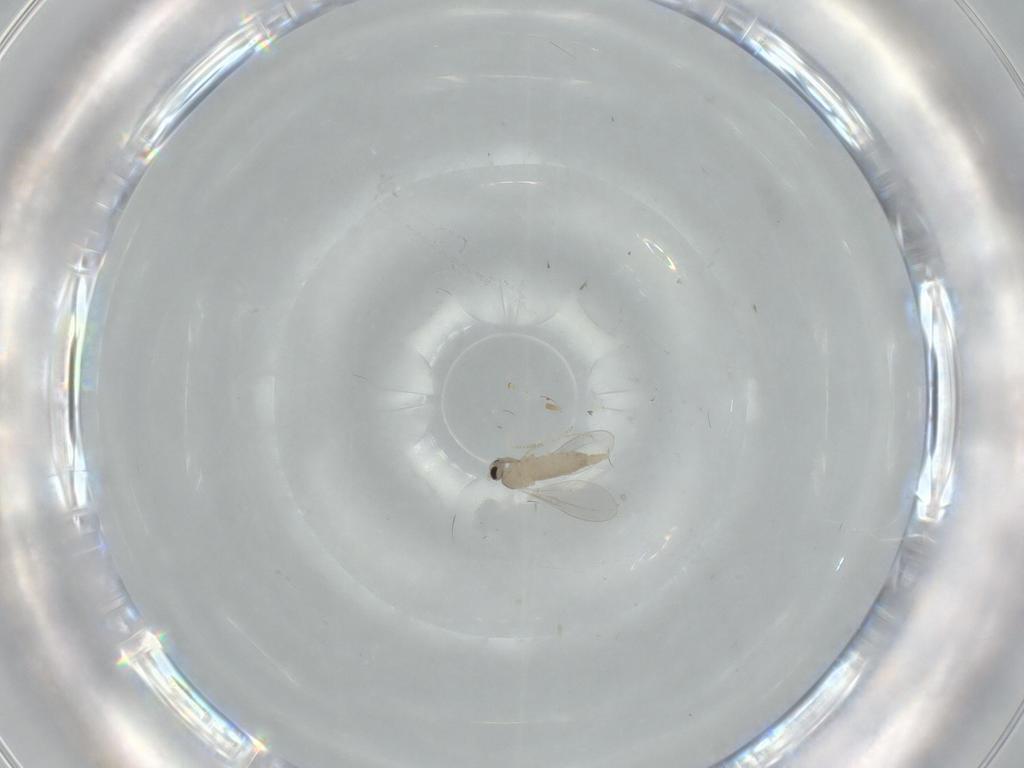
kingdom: Animalia
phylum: Arthropoda
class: Insecta
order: Diptera
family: Cecidomyiidae
